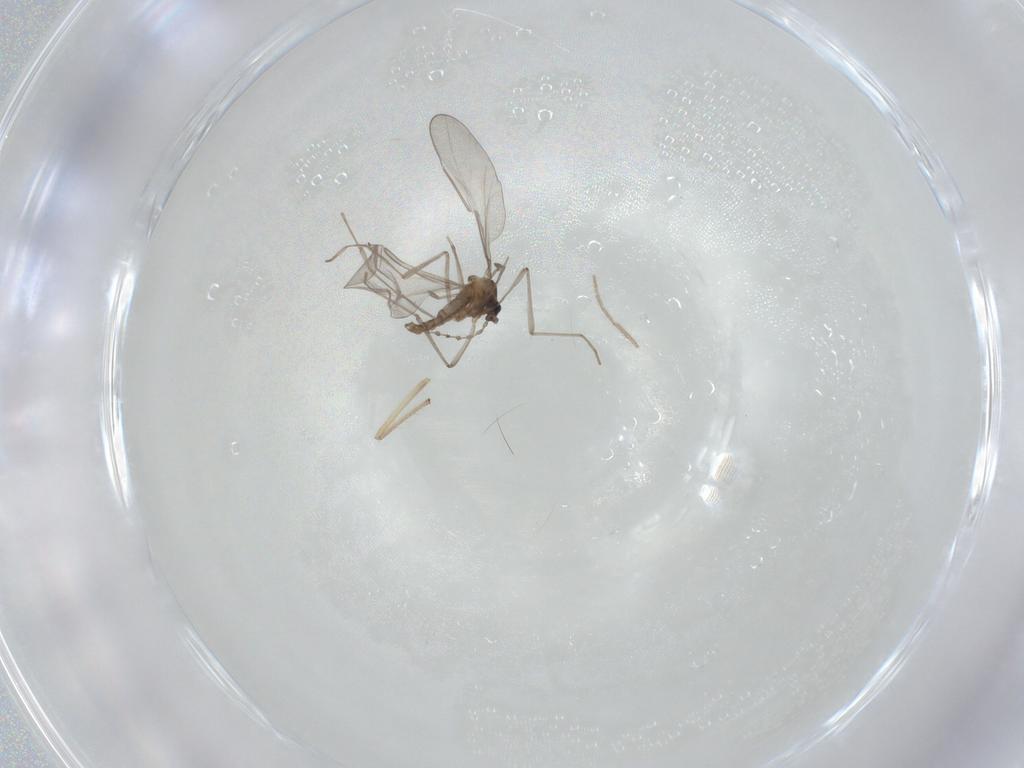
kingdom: Animalia
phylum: Arthropoda
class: Insecta
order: Diptera
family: Cecidomyiidae
